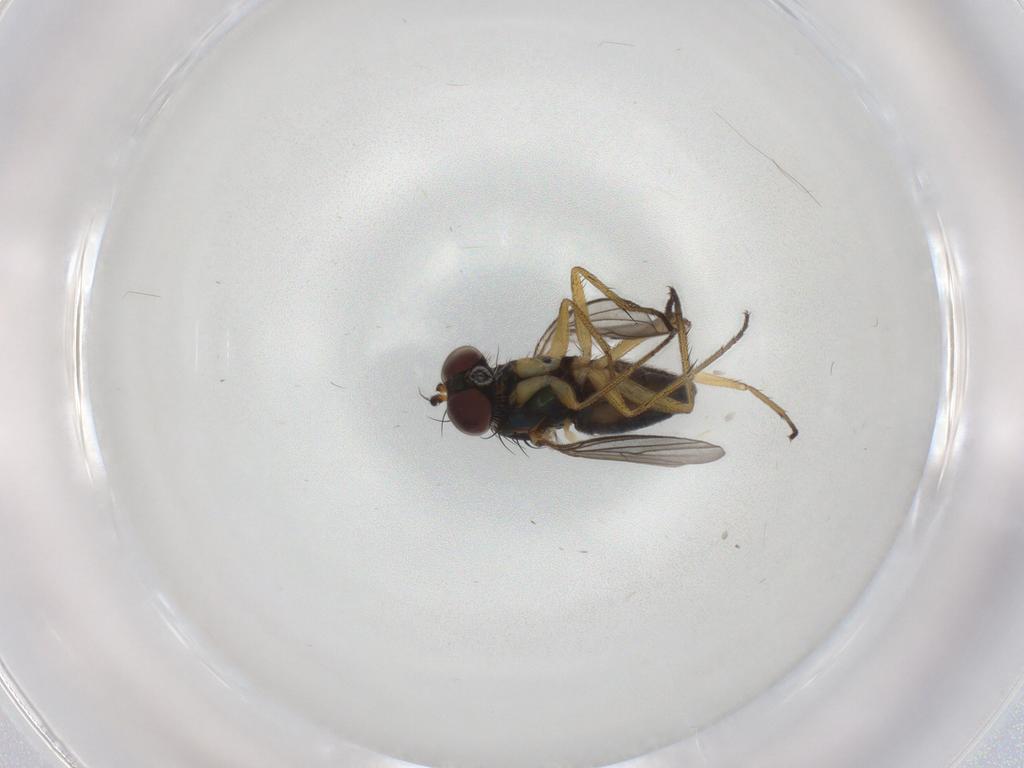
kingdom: Animalia
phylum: Arthropoda
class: Insecta
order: Diptera
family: Dolichopodidae
